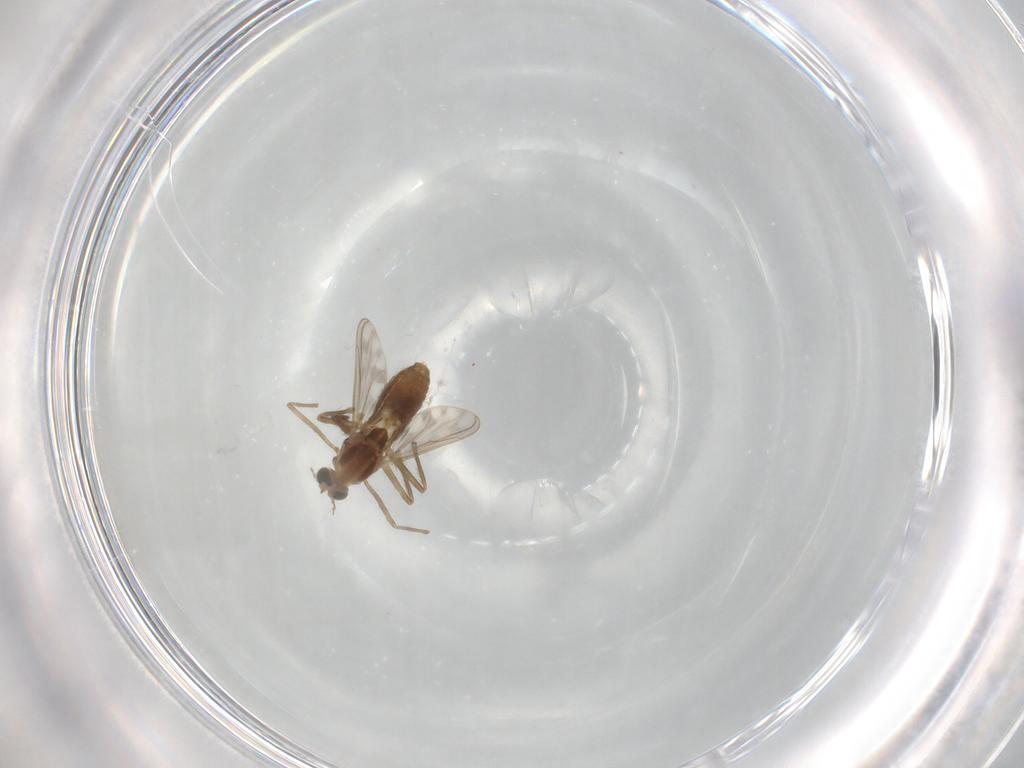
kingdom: Animalia
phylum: Arthropoda
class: Insecta
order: Diptera
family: Chironomidae
